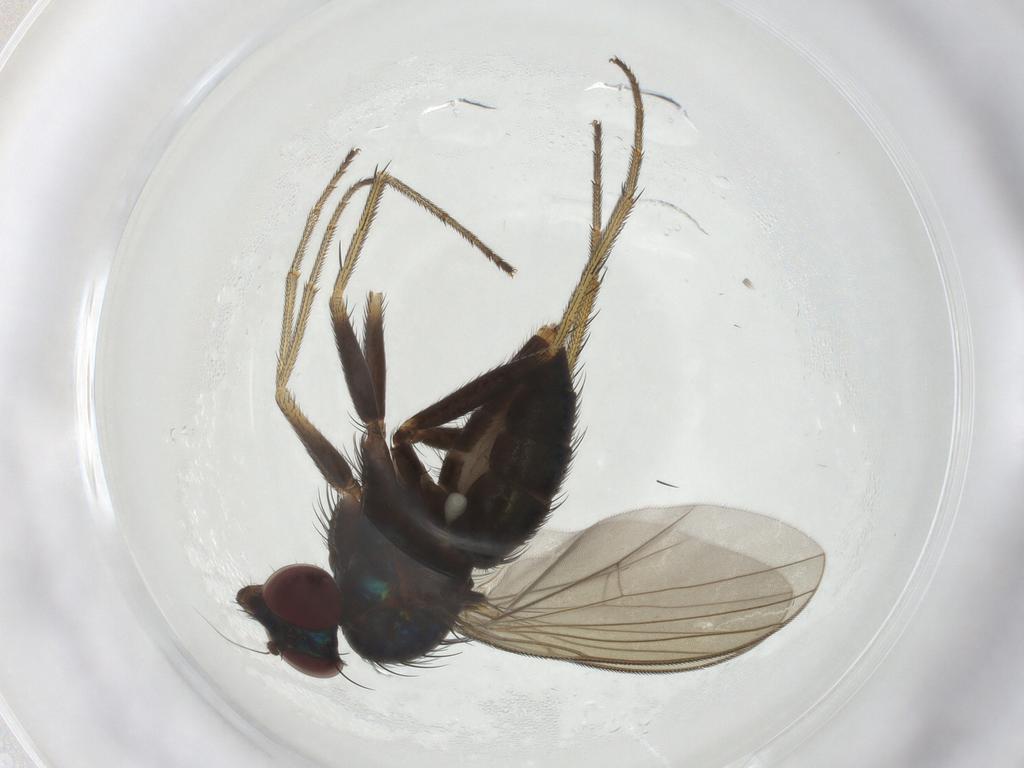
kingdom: Animalia
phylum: Arthropoda
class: Insecta
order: Diptera
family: Dolichopodidae
